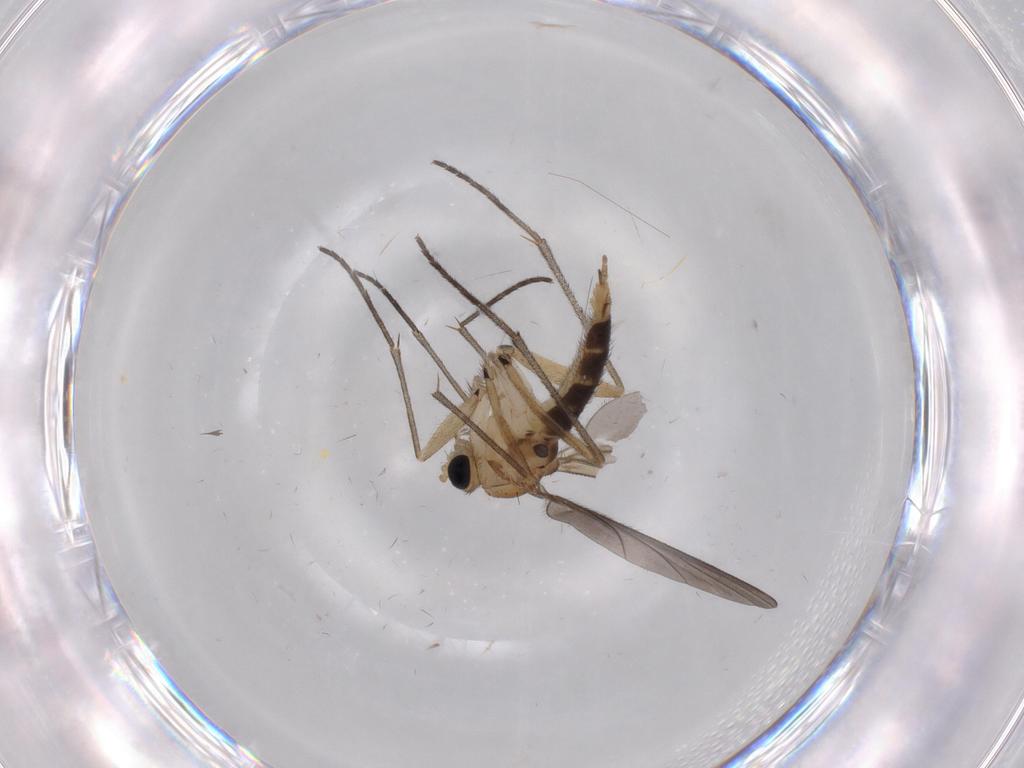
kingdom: Animalia
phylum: Arthropoda
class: Insecta
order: Diptera
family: Sciaridae
